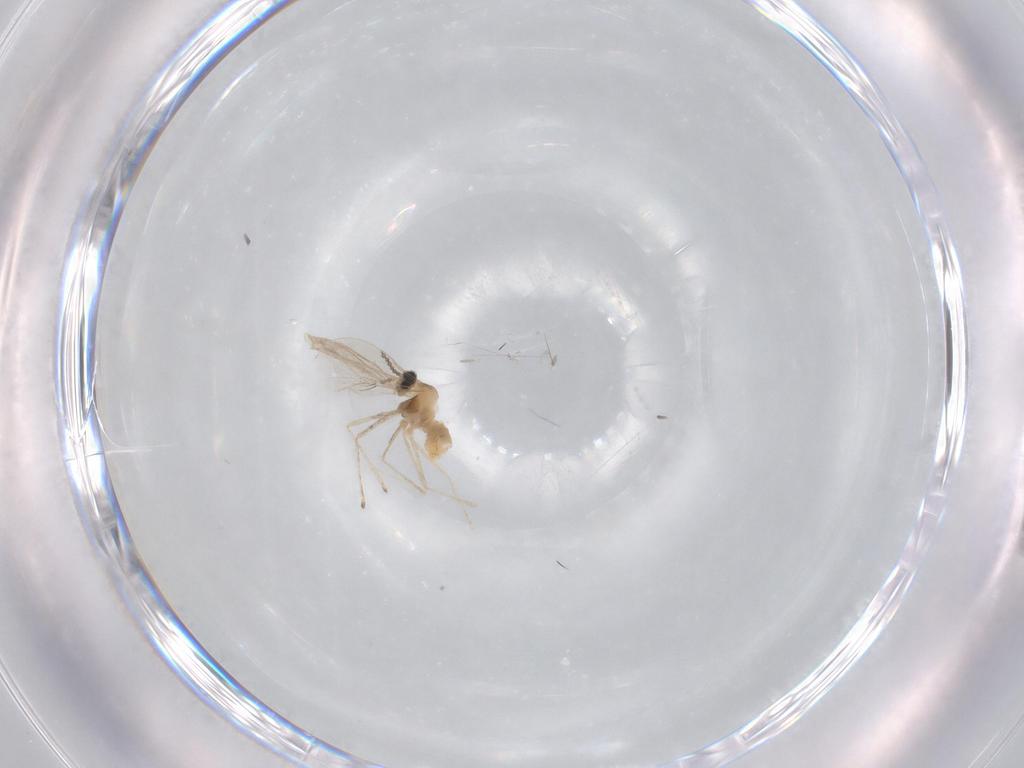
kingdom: Animalia
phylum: Arthropoda
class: Insecta
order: Diptera
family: Cecidomyiidae
